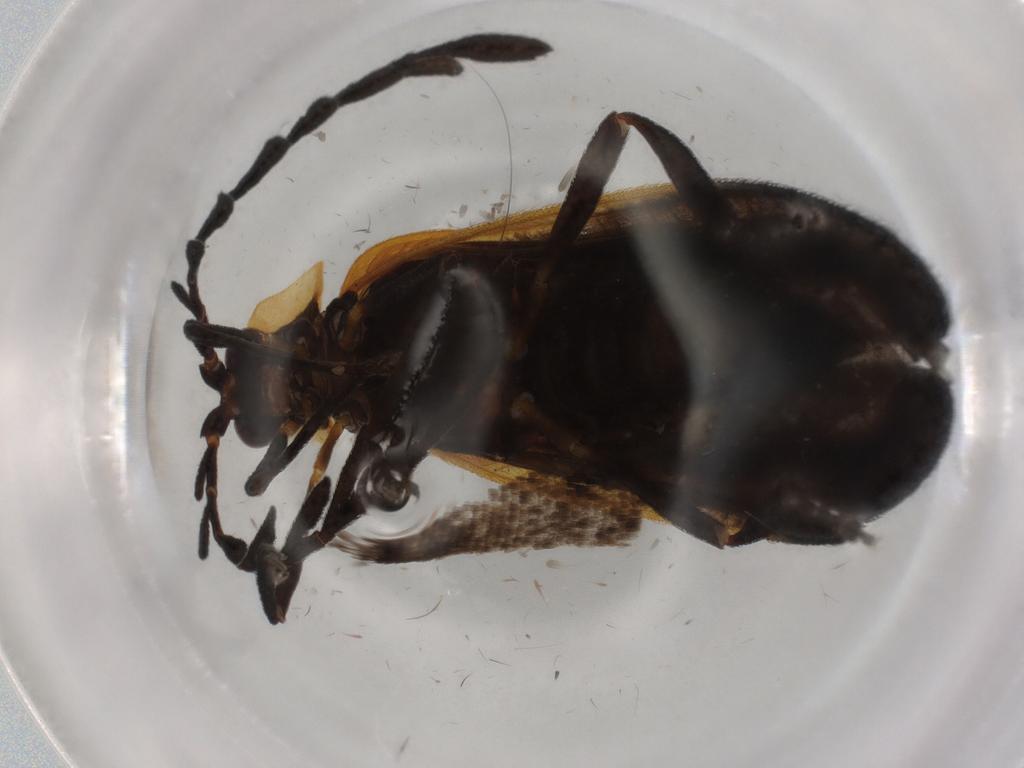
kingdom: Animalia
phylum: Arthropoda
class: Insecta
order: Coleoptera
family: Lycidae
